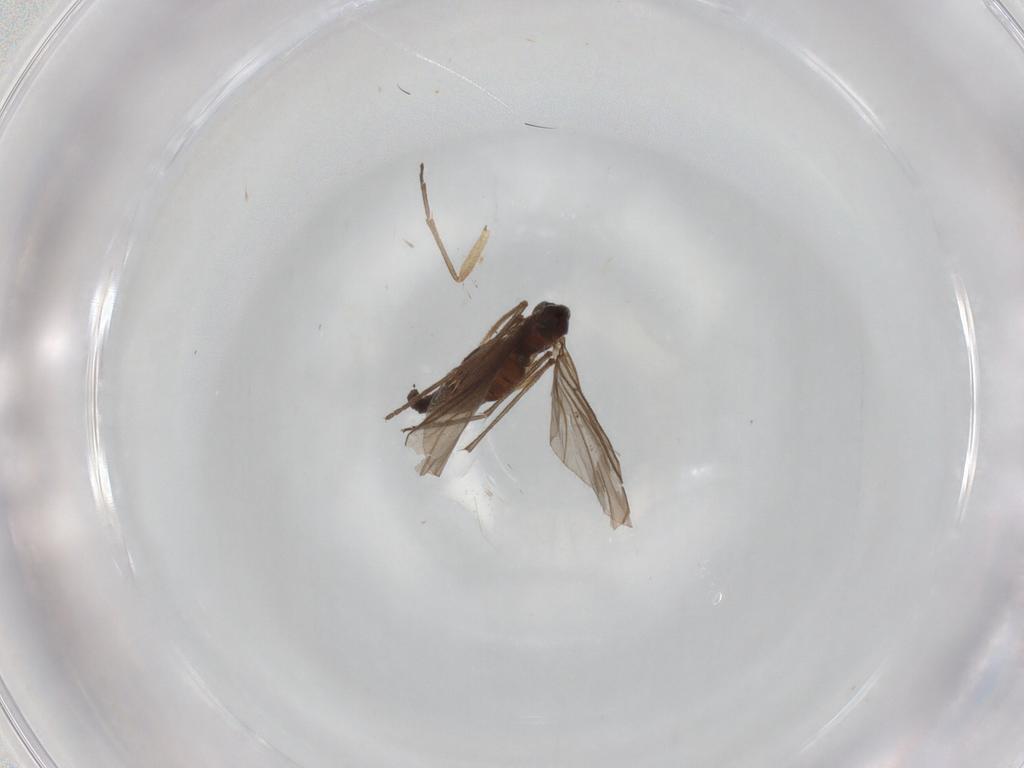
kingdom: Animalia
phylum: Arthropoda
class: Insecta
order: Diptera
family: Sciaridae
